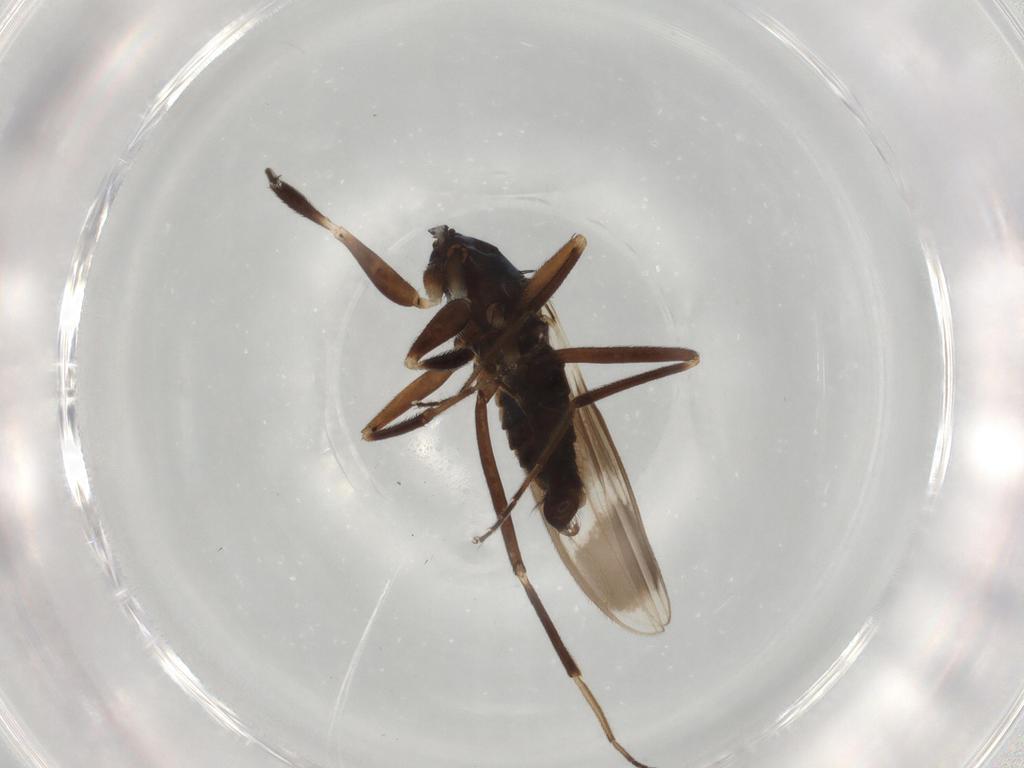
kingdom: Animalia
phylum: Arthropoda
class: Insecta
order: Diptera
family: Hybotidae
